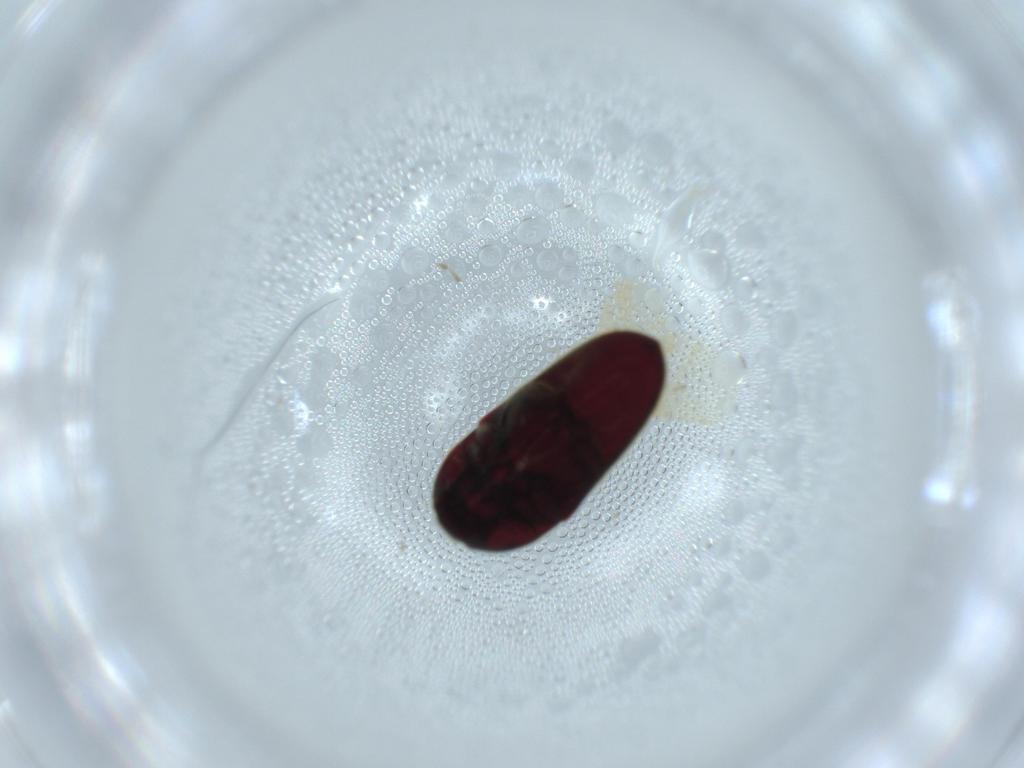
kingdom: Animalia
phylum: Arthropoda
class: Insecta
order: Coleoptera
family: Throscidae
